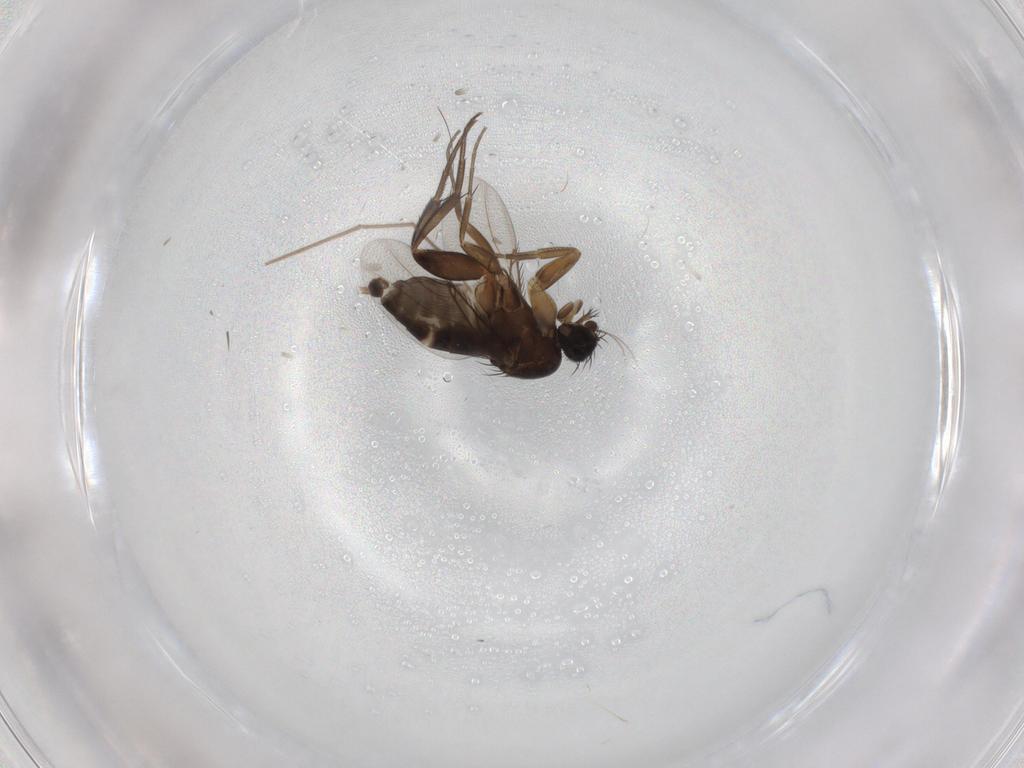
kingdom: Animalia
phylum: Arthropoda
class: Insecta
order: Diptera
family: Phoridae
